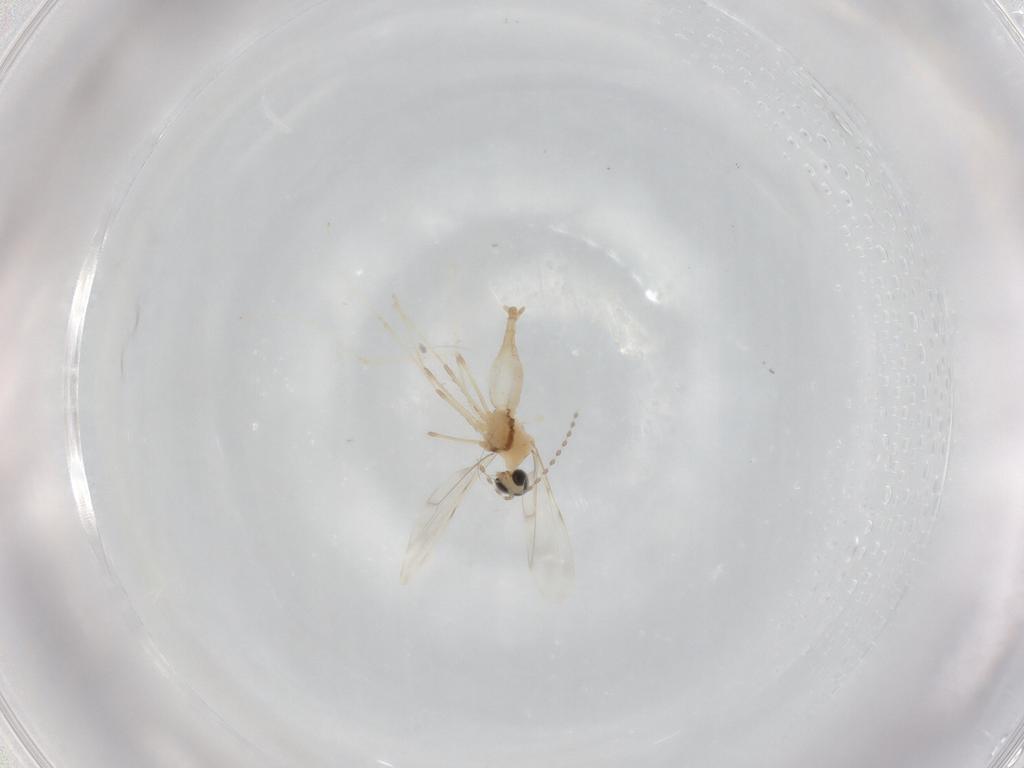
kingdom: Animalia
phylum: Arthropoda
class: Insecta
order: Diptera
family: Cecidomyiidae
